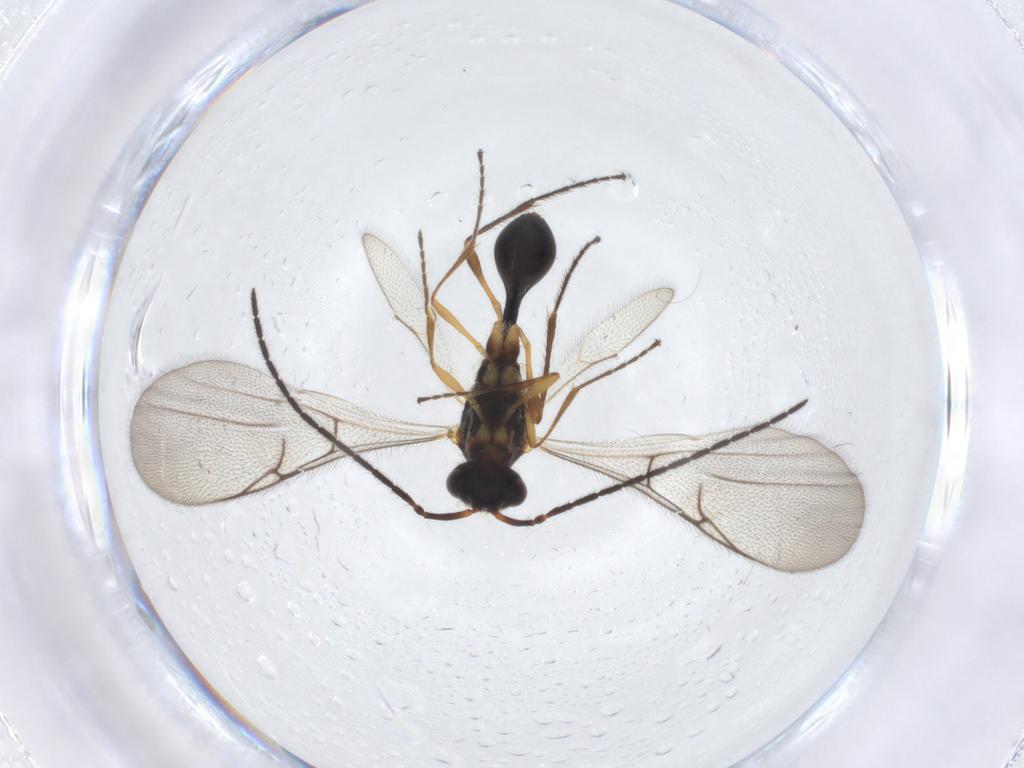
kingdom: Animalia
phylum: Arthropoda
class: Insecta
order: Hymenoptera
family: Diapriidae
